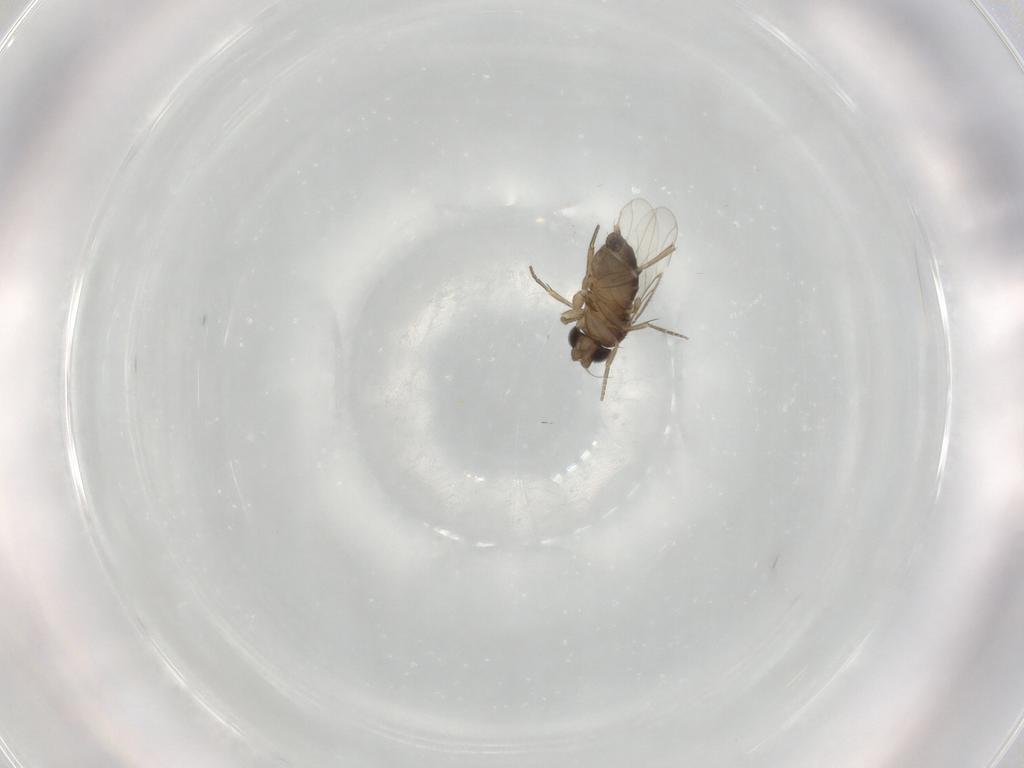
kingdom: Animalia
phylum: Arthropoda
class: Insecta
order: Diptera
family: Phoridae
